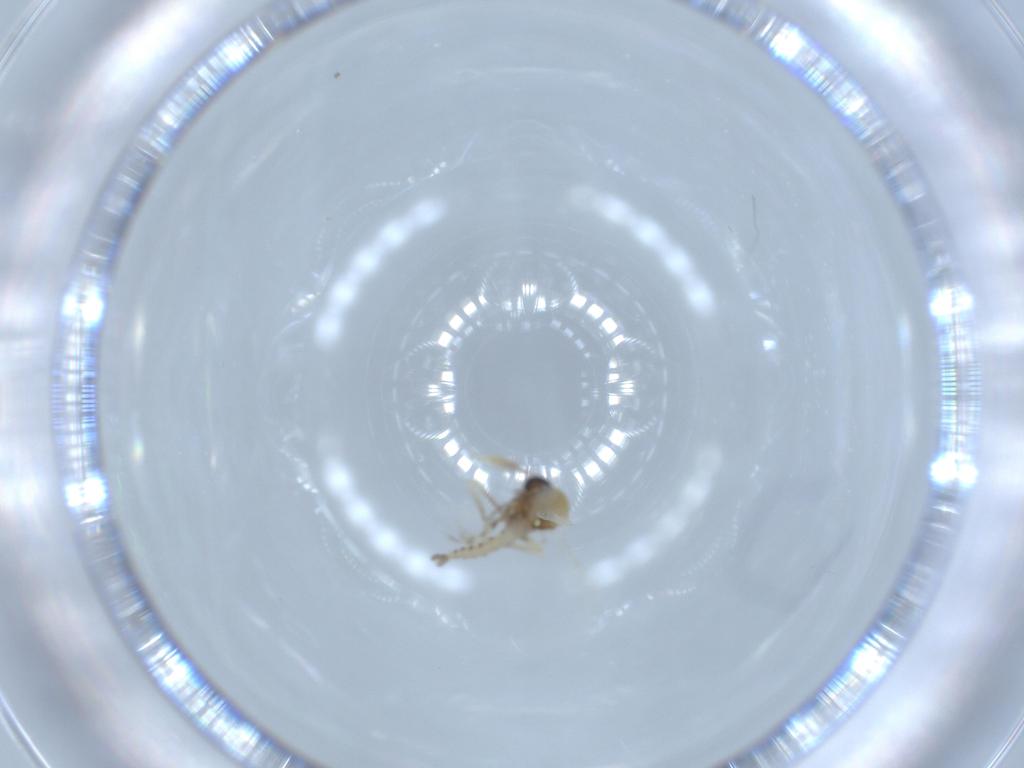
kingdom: Animalia
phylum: Arthropoda
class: Insecta
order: Diptera
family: Ceratopogonidae
